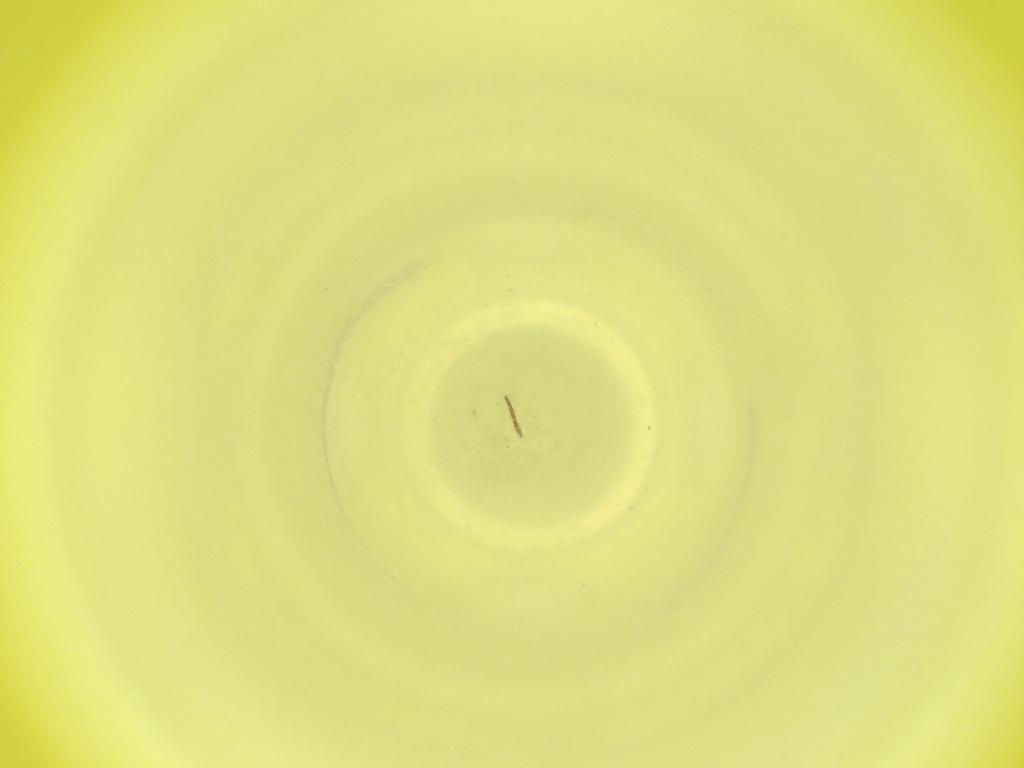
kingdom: Animalia
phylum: Arthropoda
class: Insecta
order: Diptera
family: Cecidomyiidae
